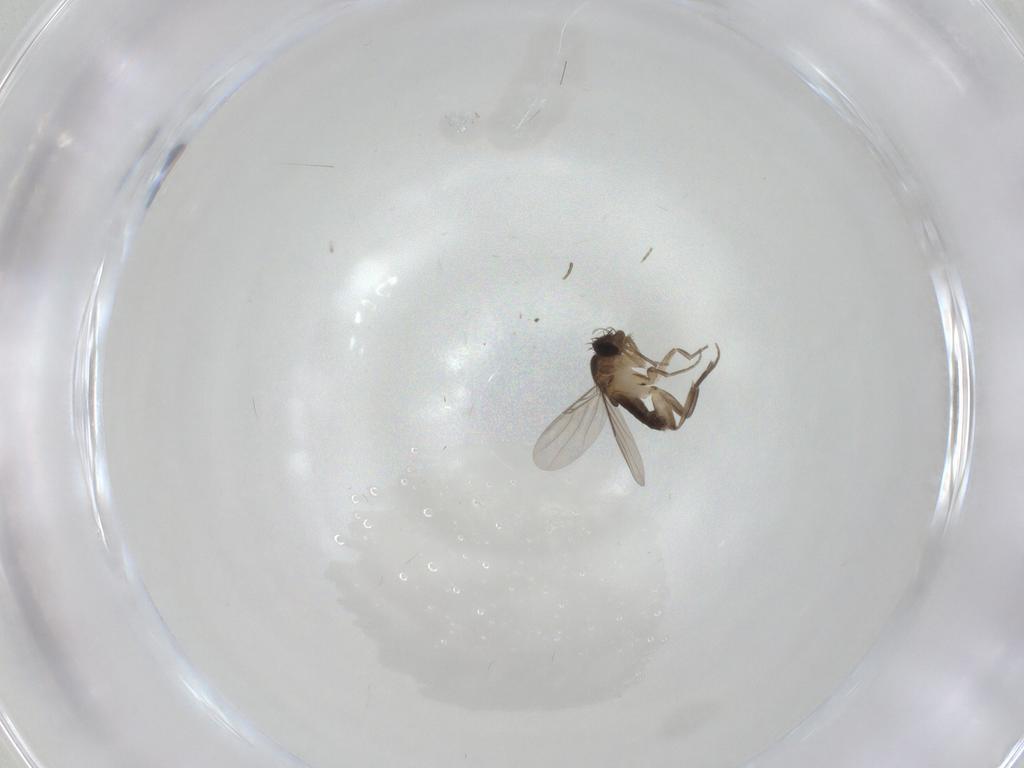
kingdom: Animalia
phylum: Arthropoda
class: Insecta
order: Diptera
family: Phoridae
